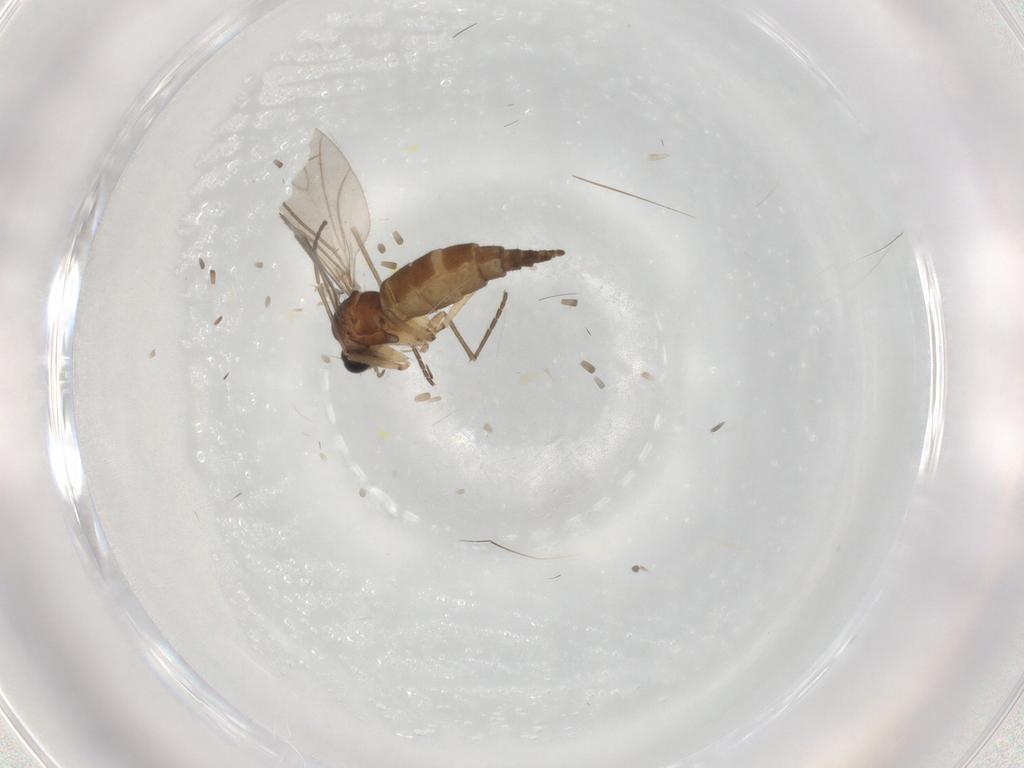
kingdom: Animalia
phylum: Arthropoda
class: Insecta
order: Diptera
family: Sciaridae
